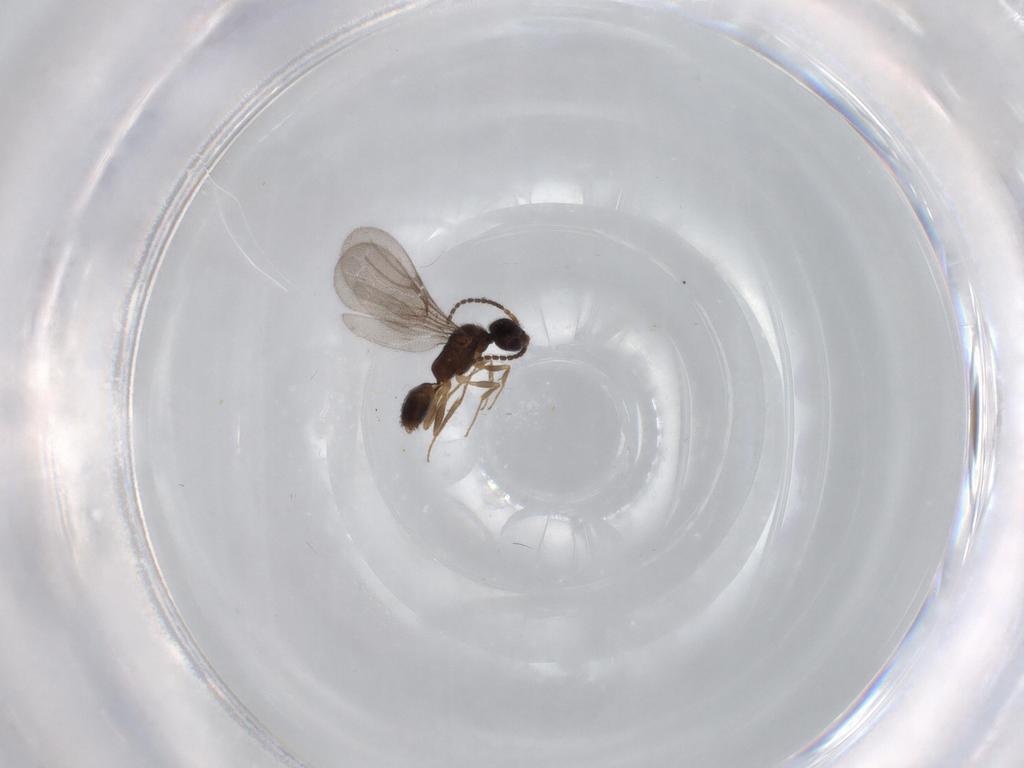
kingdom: Animalia
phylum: Arthropoda
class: Insecta
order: Hymenoptera
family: Bethylidae
